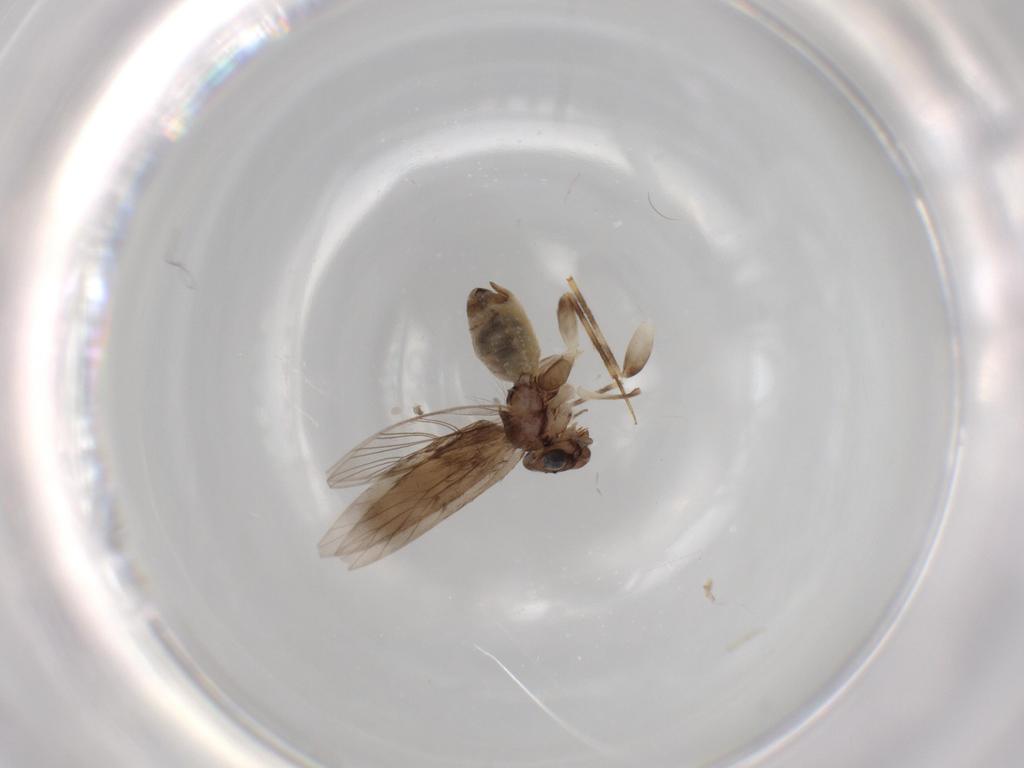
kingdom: Animalia
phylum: Arthropoda
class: Insecta
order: Psocodea
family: Lepidopsocidae
